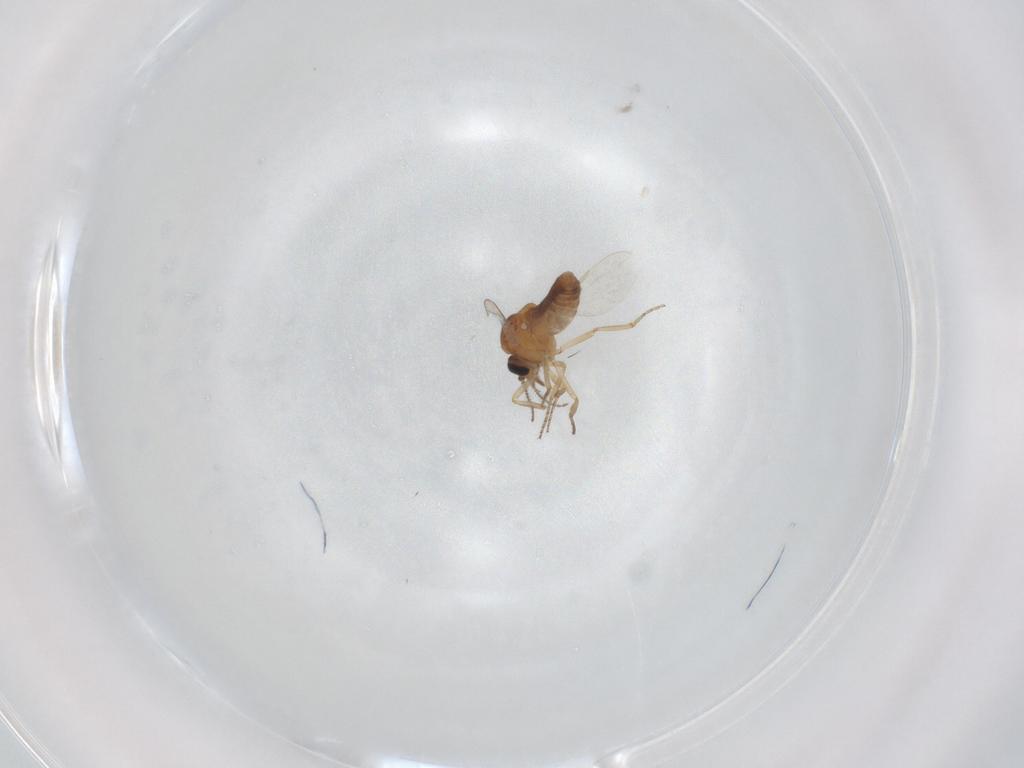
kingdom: Animalia
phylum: Arthropoda
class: Insecta
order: Diptera
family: Ceratopogonidae
